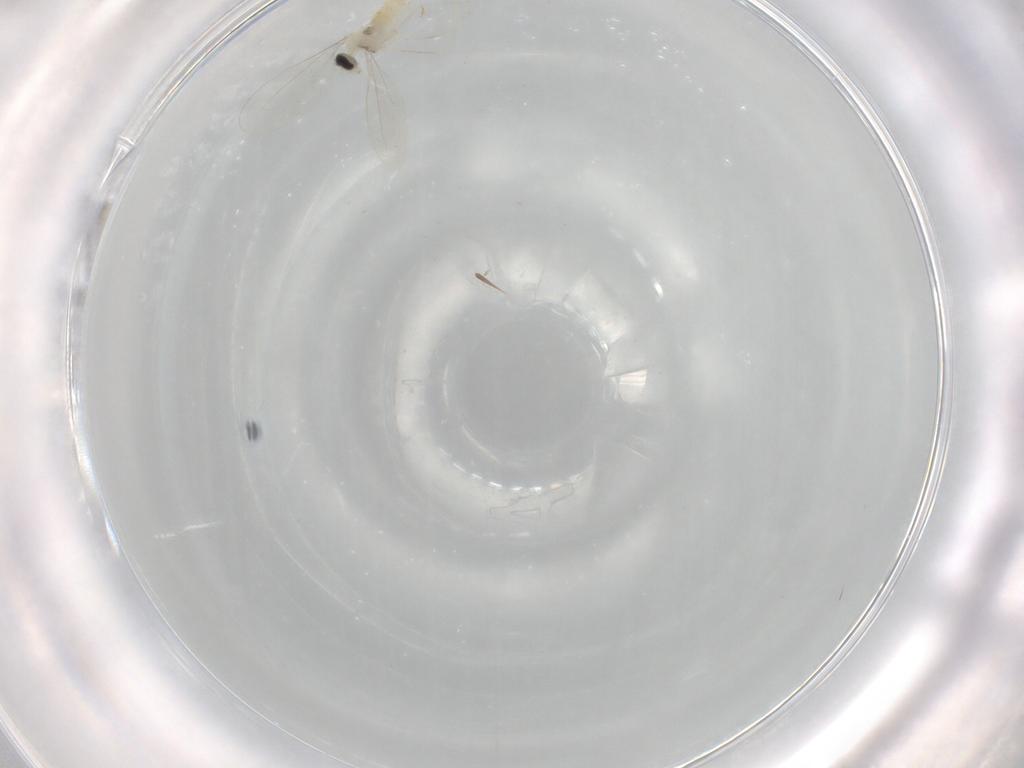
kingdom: Animalia
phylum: Arthropoda
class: Insecta
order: Diptera
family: Cecidomyiidae
